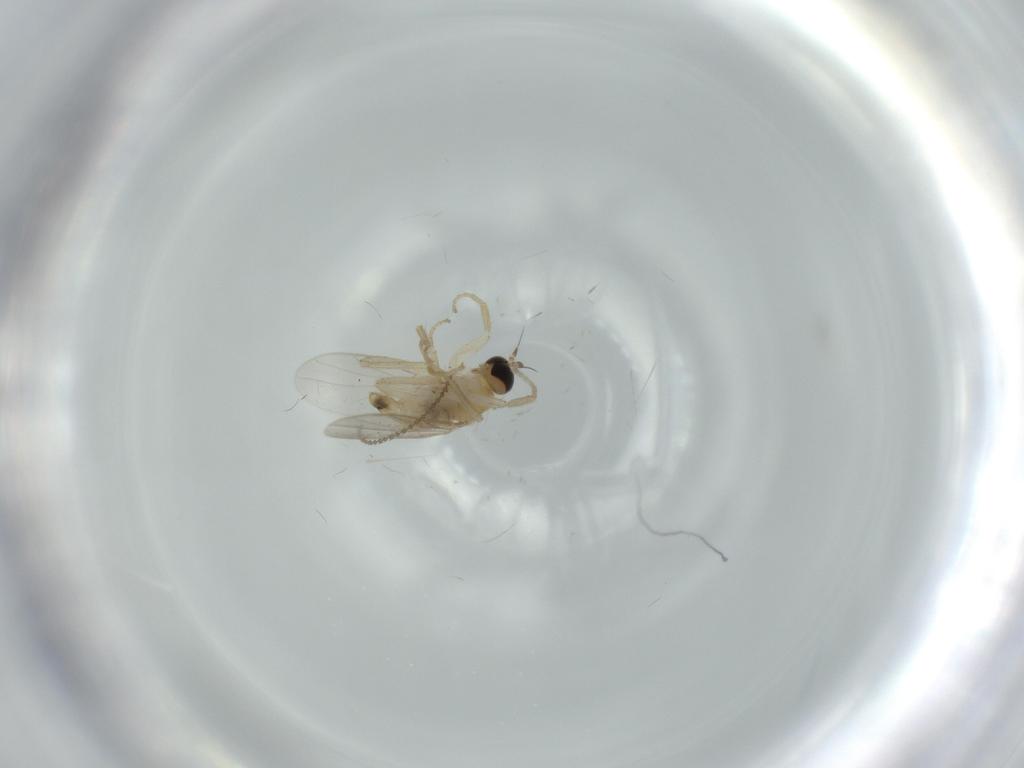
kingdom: Animalia
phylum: Arthropoda
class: Insecta
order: Diptera
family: Hybotidae
